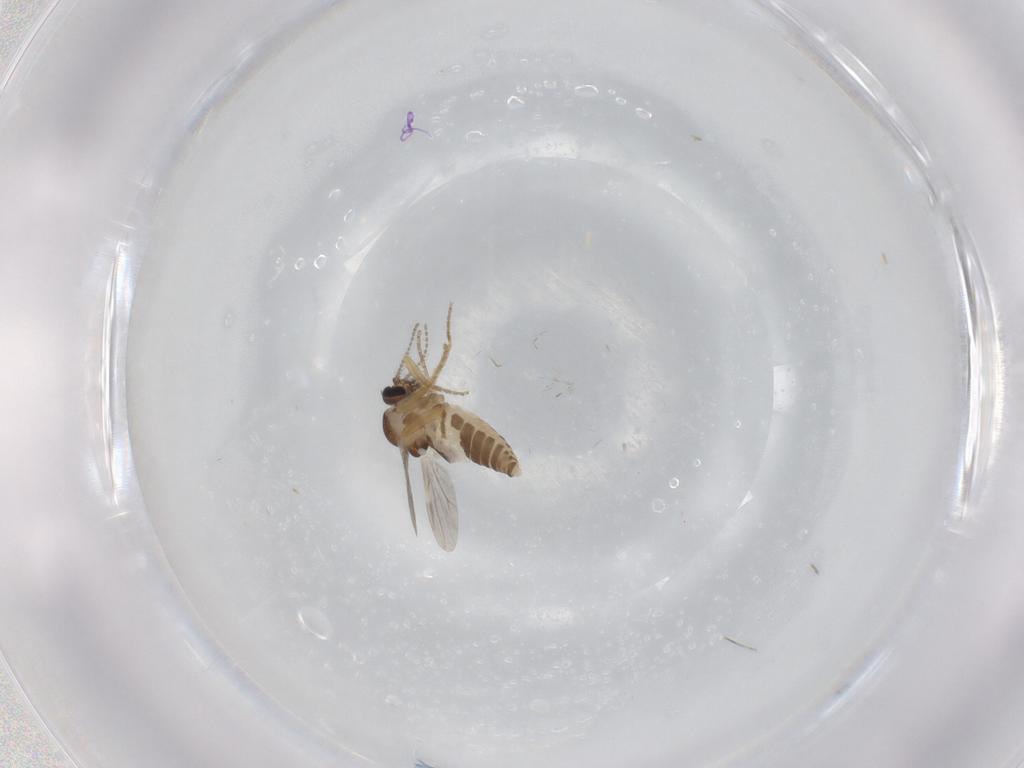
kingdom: Animalia
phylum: Arthropoda
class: Insecta
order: Diptera
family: Ceratopogonidae
